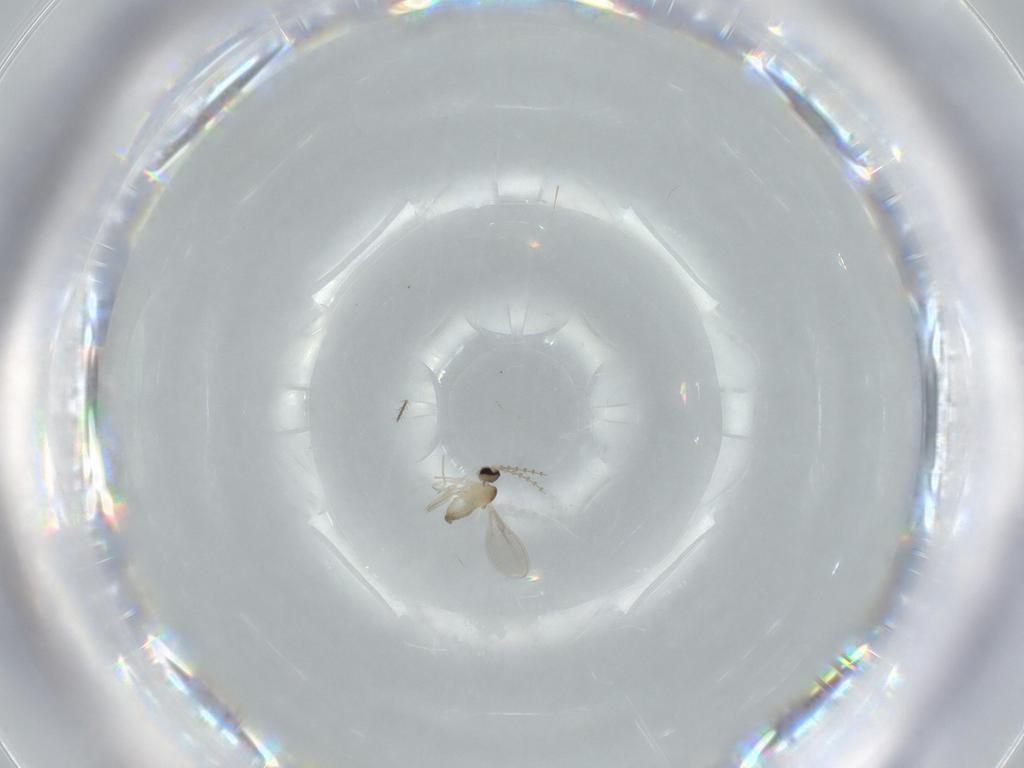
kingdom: Animalia
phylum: Arthropoda
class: Insecta
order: Diptera
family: Cecidomyiidae
